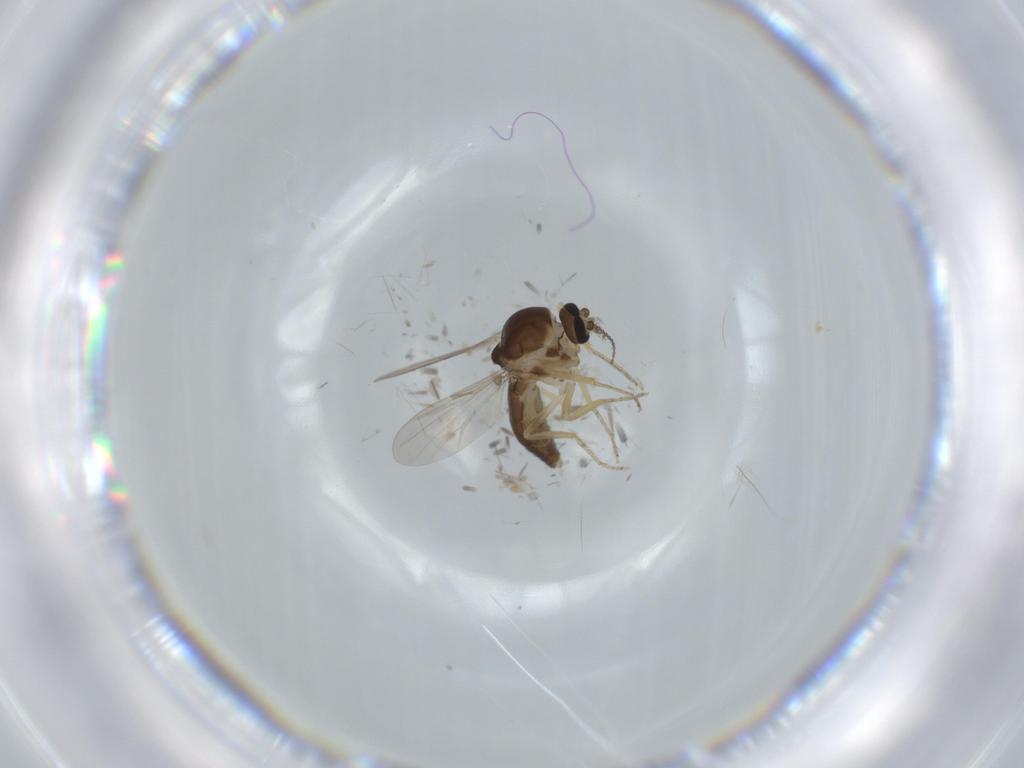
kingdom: Animalia
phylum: Arthropoda
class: Insecta
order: Diptera
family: Ceratopogonidae
